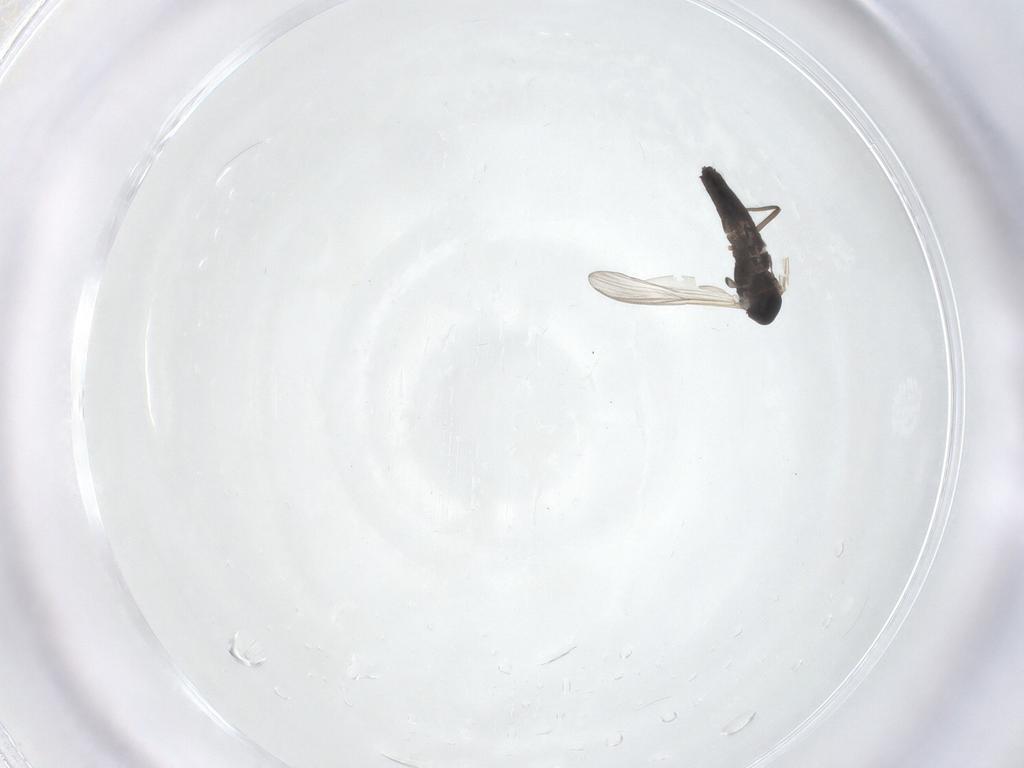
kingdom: Animalia
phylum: Arthropoda
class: Insecta
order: Diptera
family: Chironomidae
